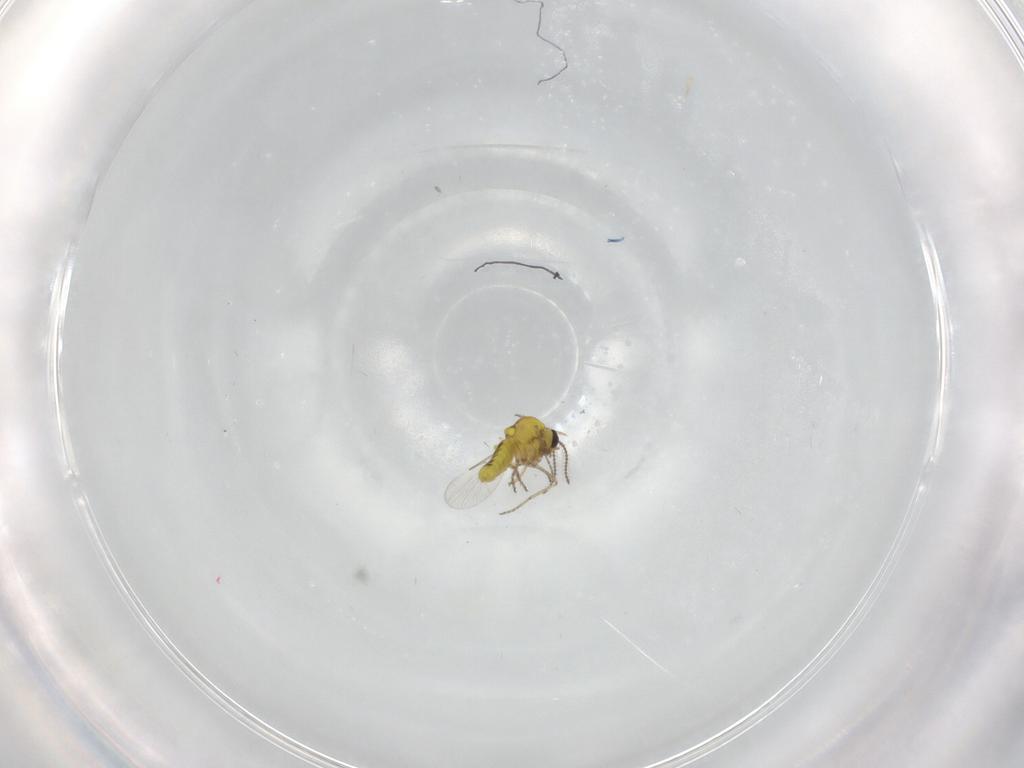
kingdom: Animalia
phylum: Arthropoda
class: Insecta
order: Diptera
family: Ceratopogonidae
